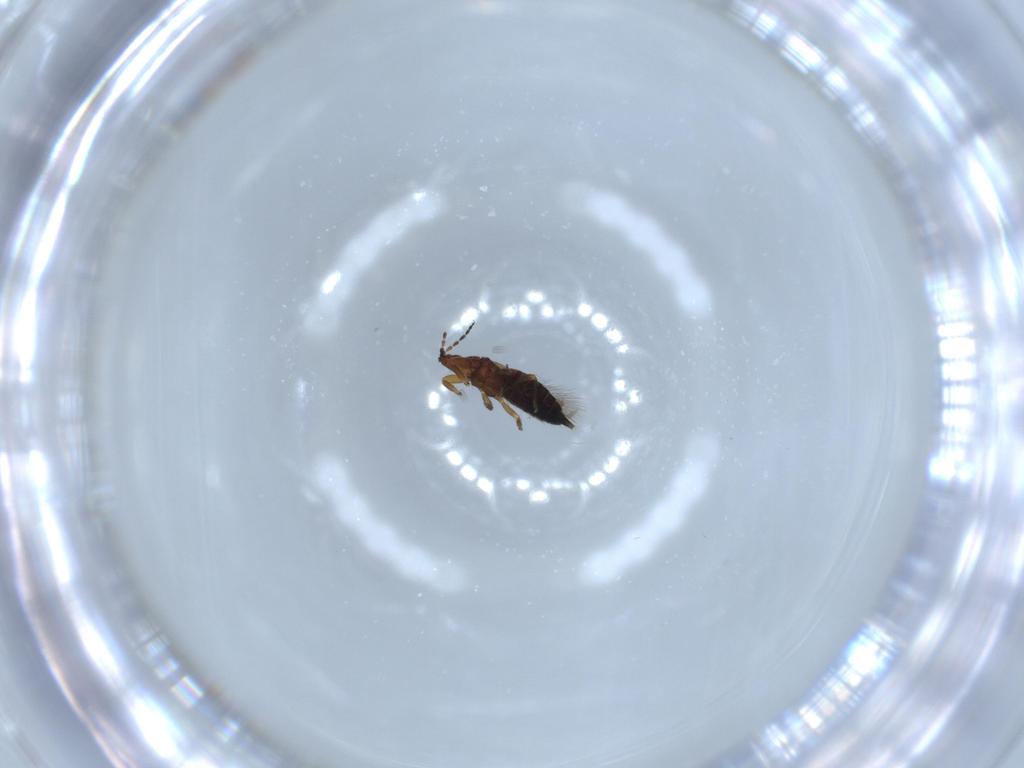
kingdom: Animalia
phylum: Arthropoda
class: Insecta
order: Thysanoptera
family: Phlaeothripidae
